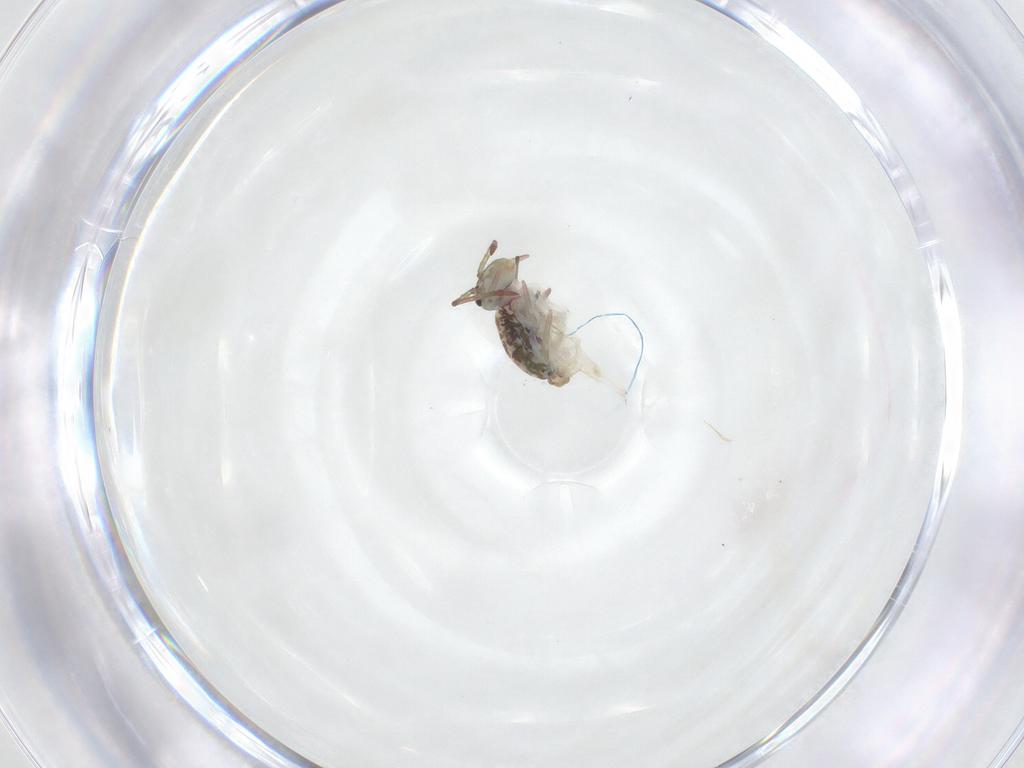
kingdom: Animalia
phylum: Arthropoda
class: Collembola
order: Symphypleona
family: Dicyrtomidae
